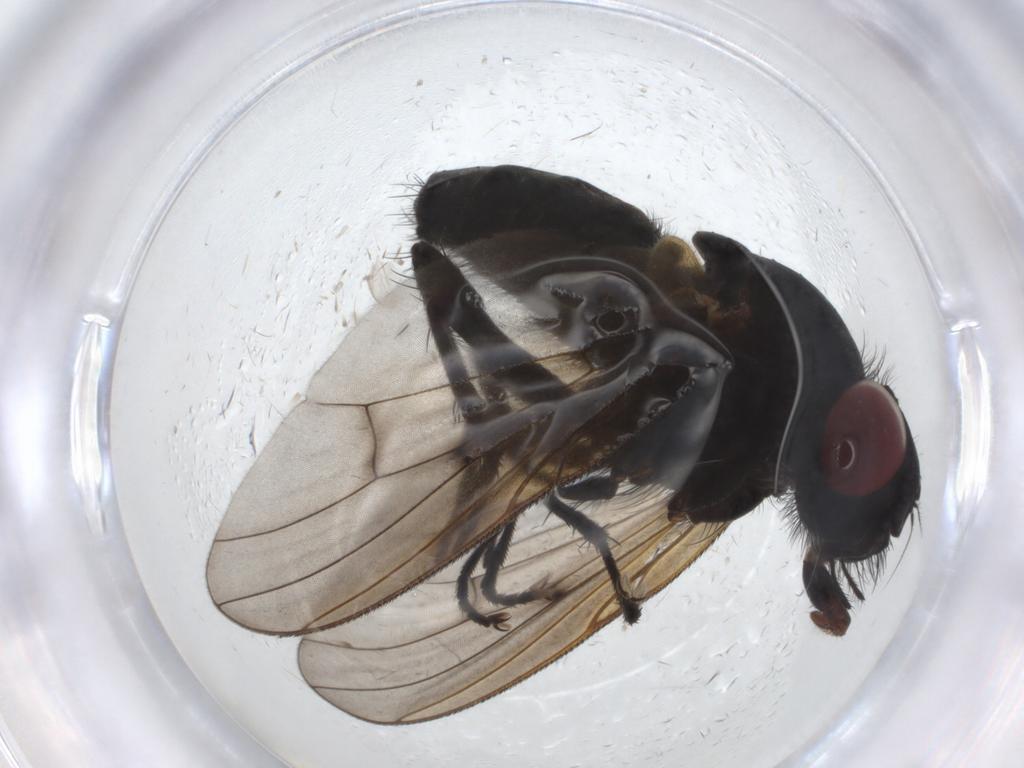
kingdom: Animalia
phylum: Arthropoda
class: Insecta
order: Diptera
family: Muscidae
